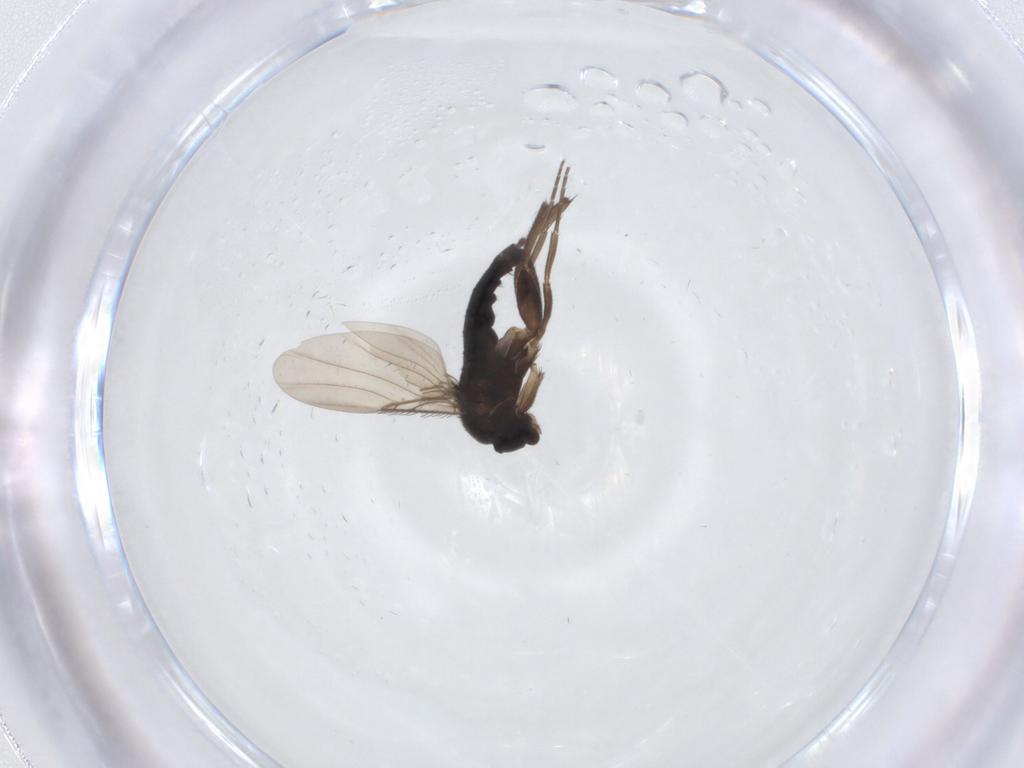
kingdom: Animalia
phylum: Arthropoda
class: Insecta
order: Diptera
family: Phoridae
